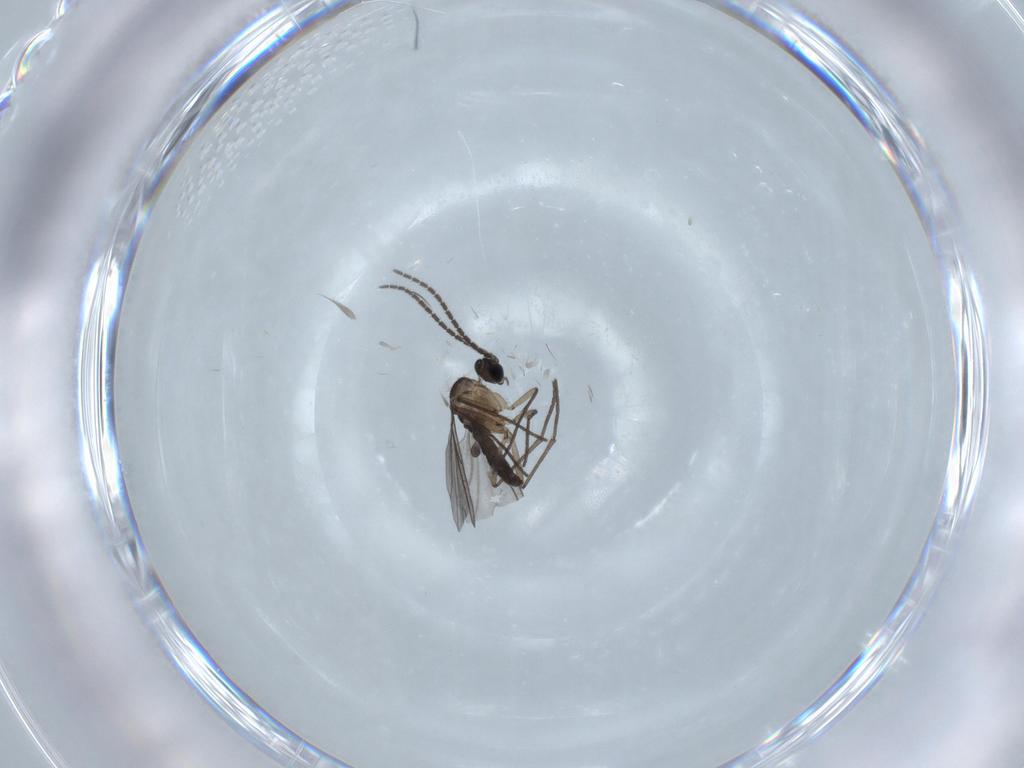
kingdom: Animalia
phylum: Arthropoda
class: Insecta
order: Diptera
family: Sciaridae
